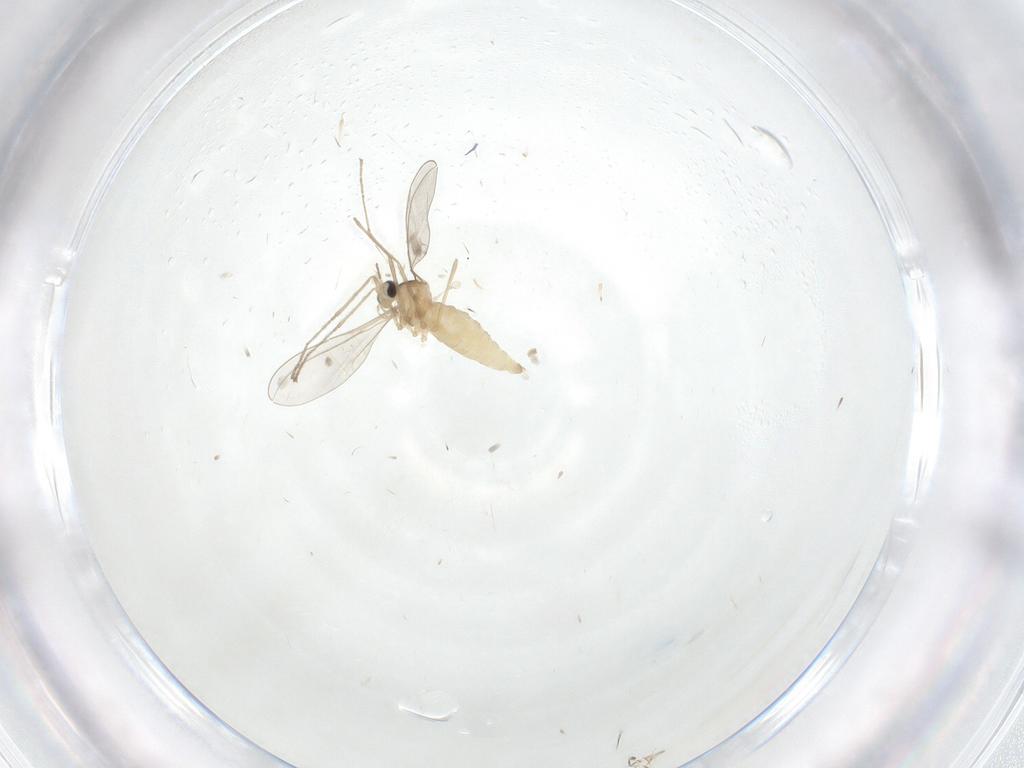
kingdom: Animalia
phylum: Arthropoda
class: Insecta
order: Diptera
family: Cecidomyiidae
